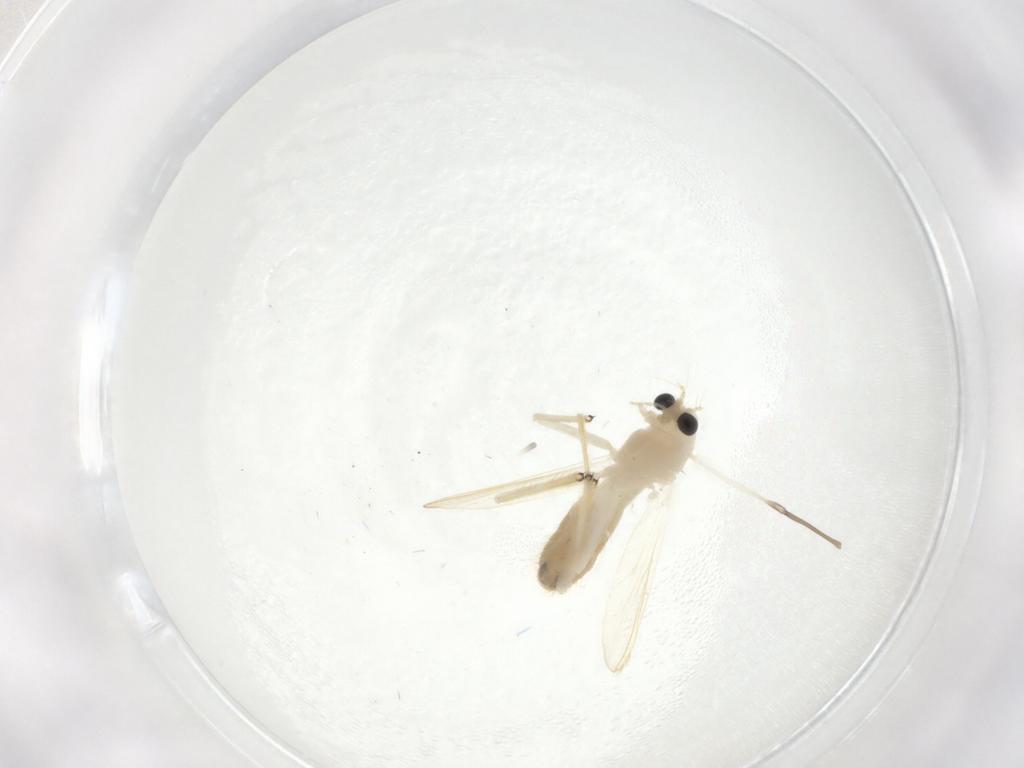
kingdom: Animalia
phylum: Arthropoda
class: Insecta
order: Diptera
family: Chironomidae
